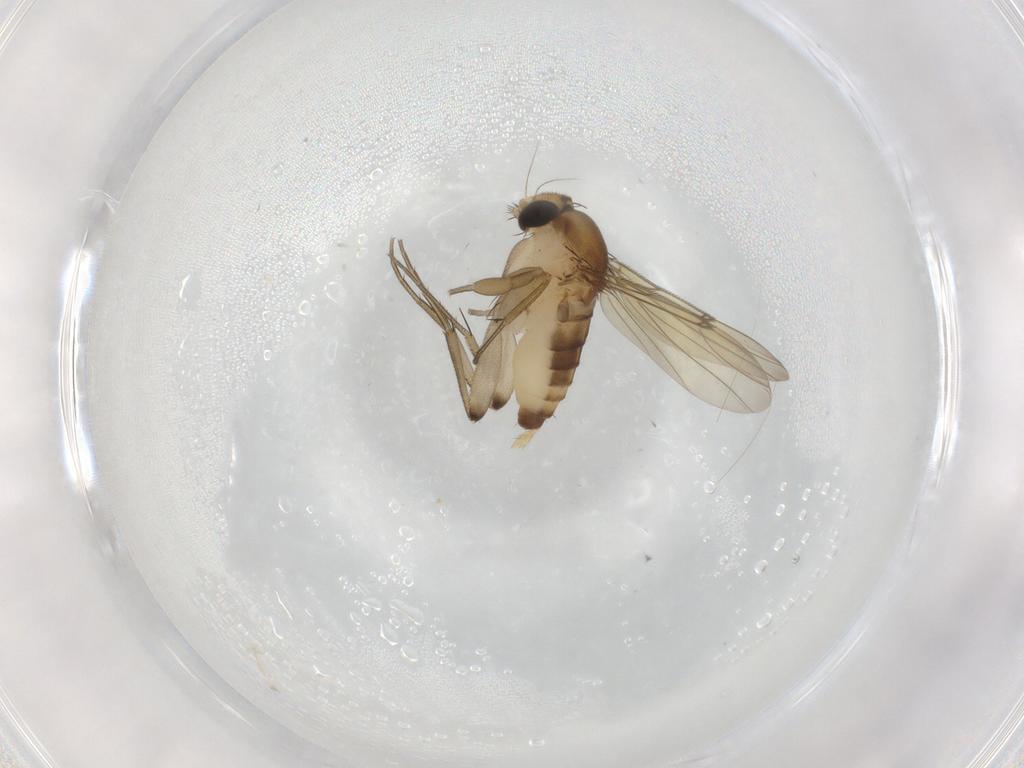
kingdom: Animalia
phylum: Arthropoda
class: Insecta
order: Diptera
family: Phoridae
